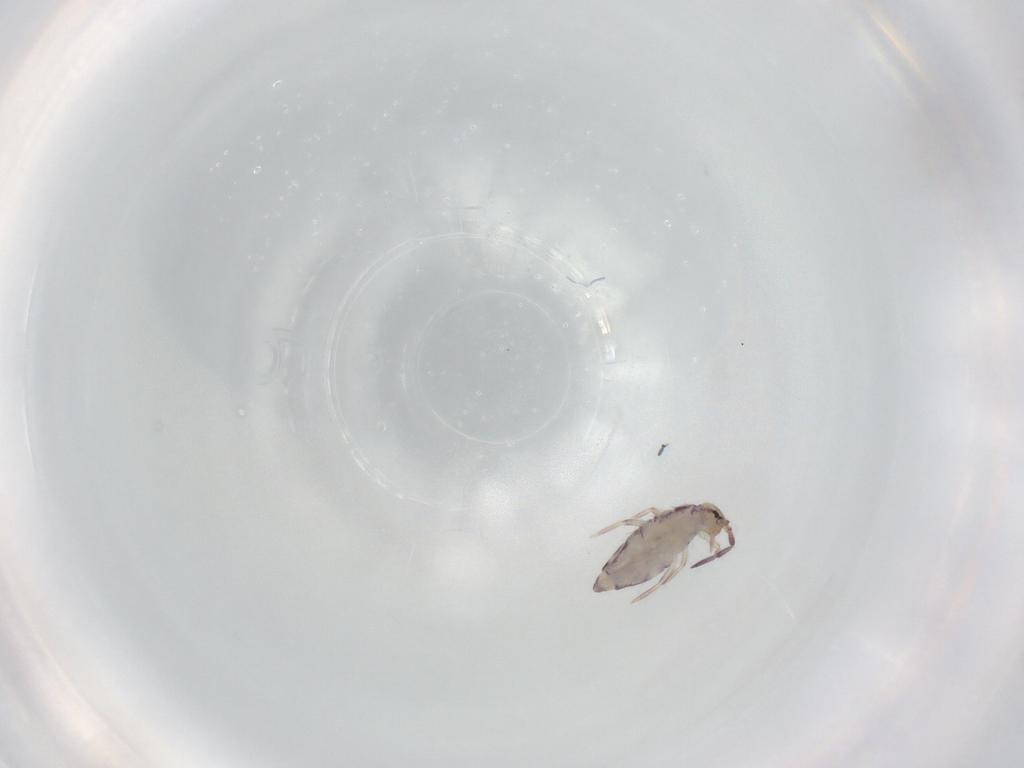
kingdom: Animalia
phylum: Arthropoda
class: Collembola
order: Entomobryomorpha
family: Entomobryidae
